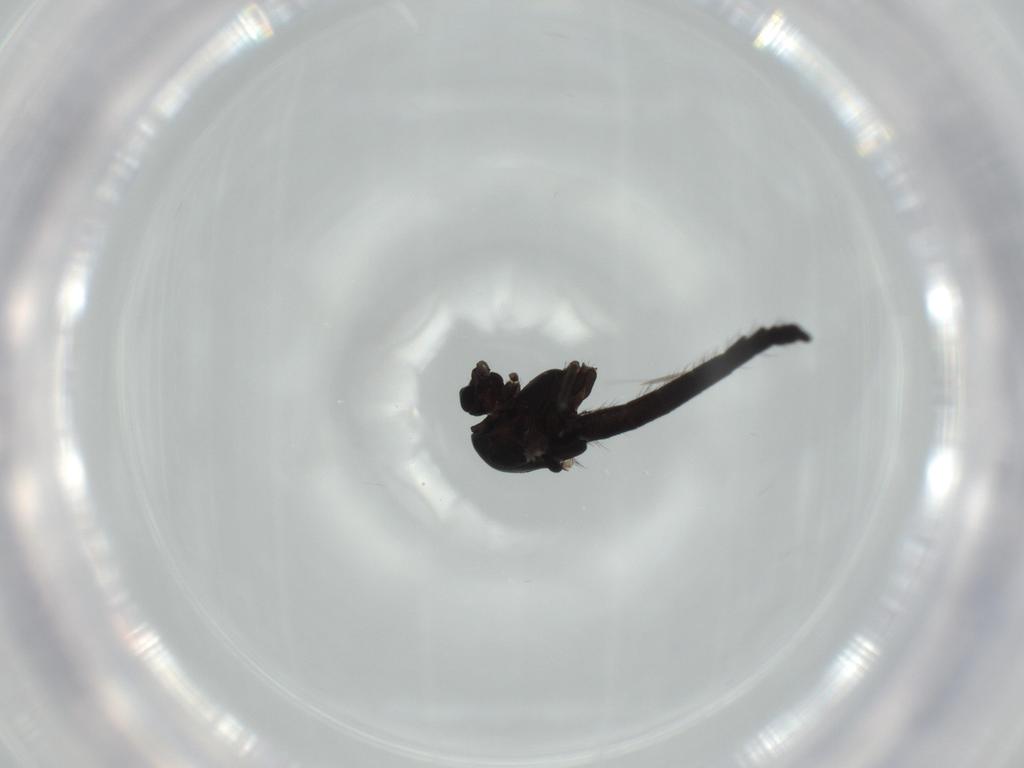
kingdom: Animalia
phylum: Arthropoda
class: Insecta
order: Diptera
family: Chironomidae
